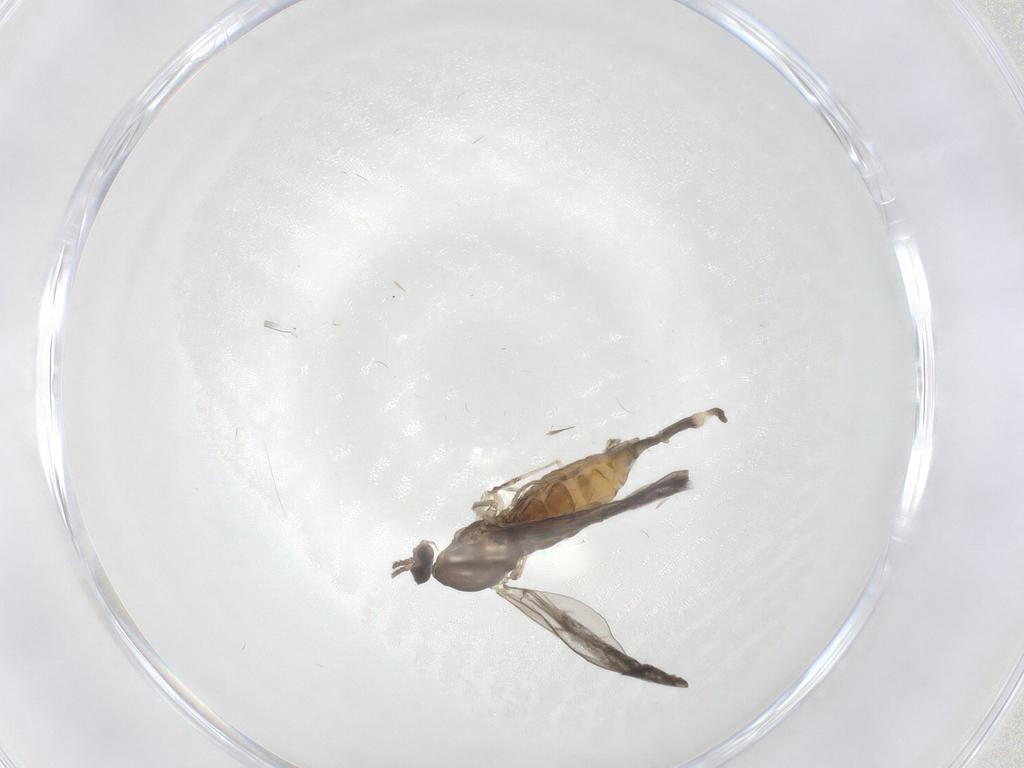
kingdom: Animalia
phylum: Arthropoda
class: Insecta
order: Diptera
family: Cecidomyiidae
